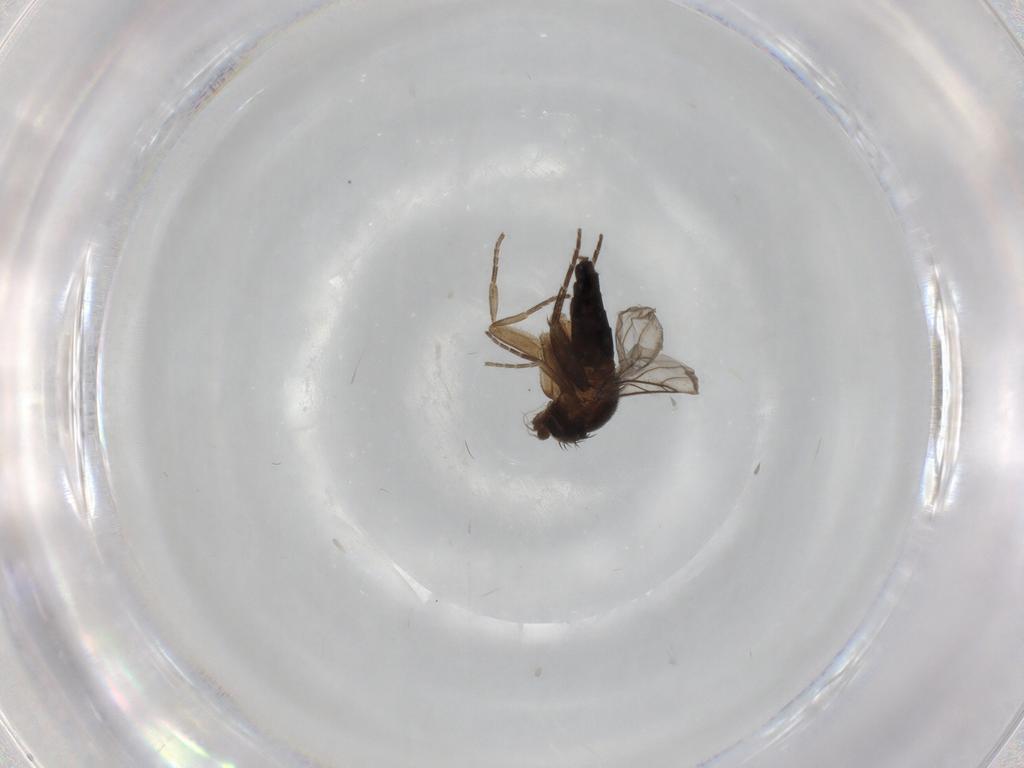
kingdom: Animalia
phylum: Arthropoda
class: Insecta
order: Diptera
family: Phoridae
